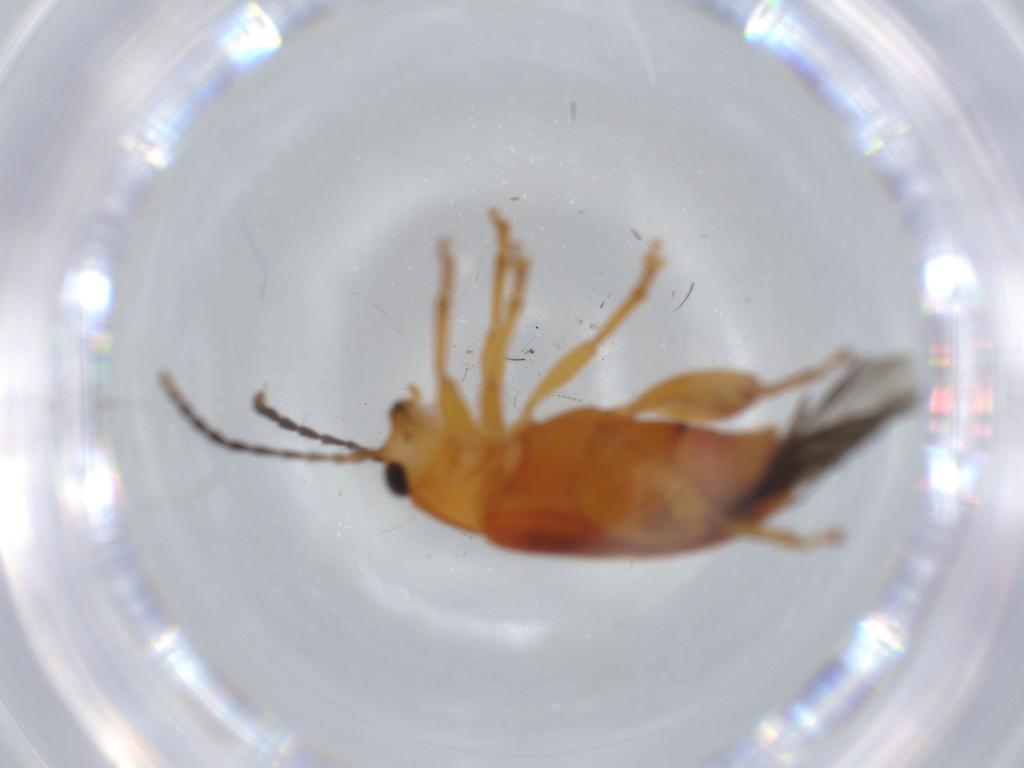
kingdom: Animalia
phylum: Arthropoda
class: Insecta
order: Coleoptera
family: Chrysomelidae
